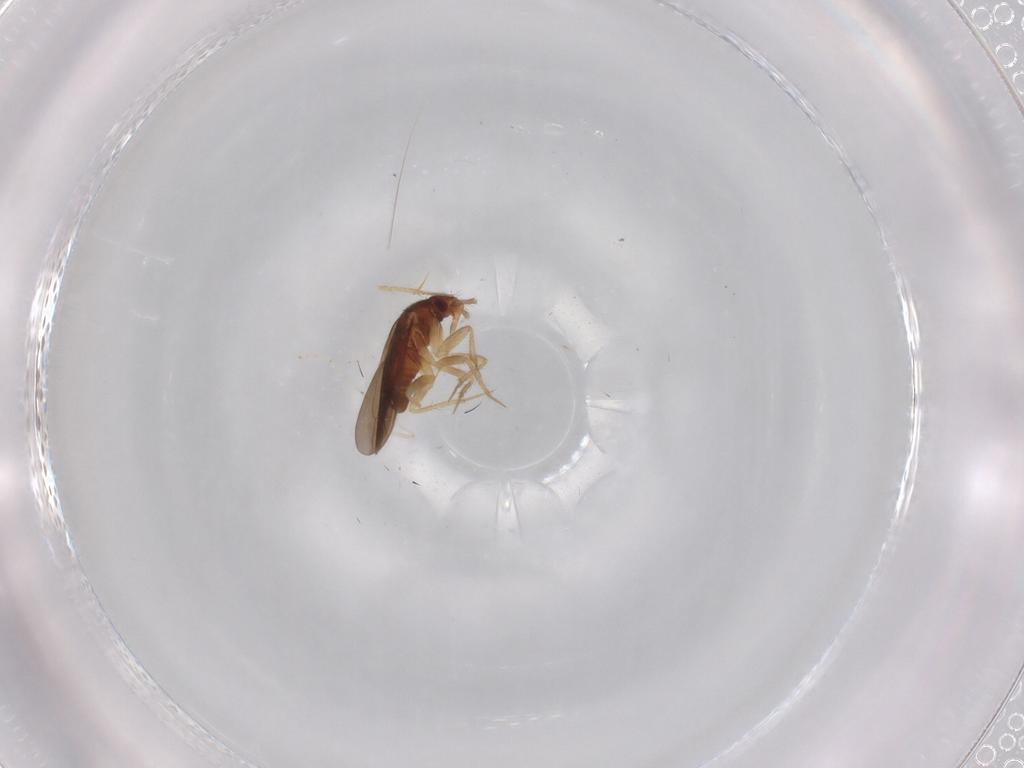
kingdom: Animalia
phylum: Arthropoda
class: Insecta
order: Hemiptera
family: Ceratocombidae
